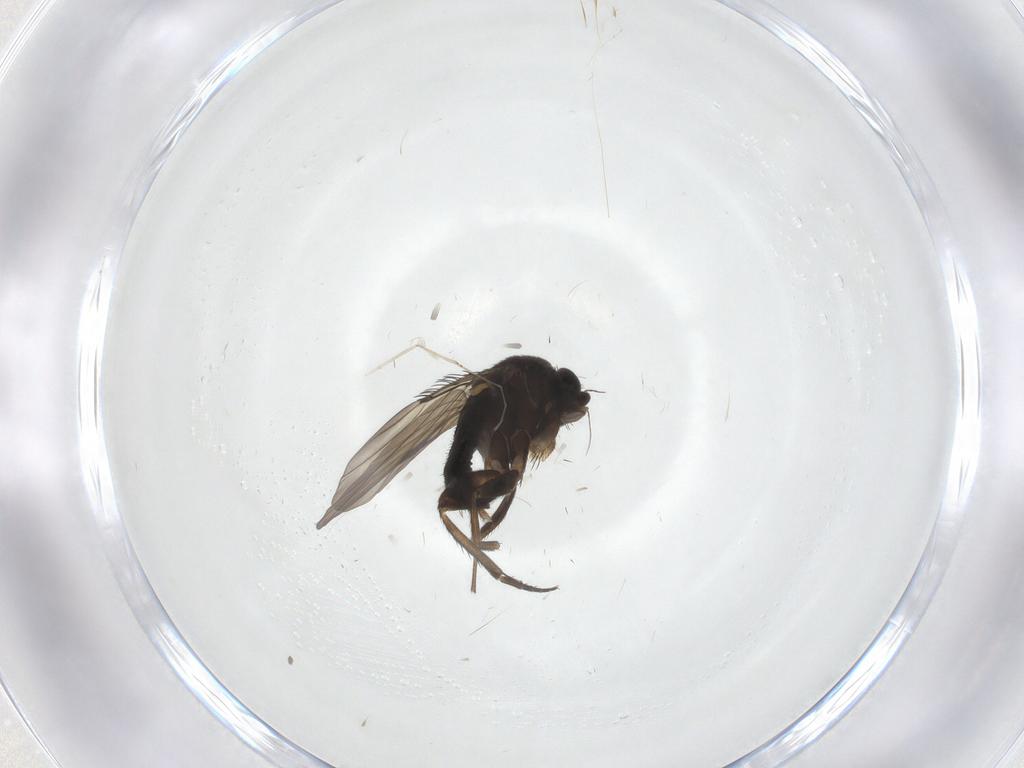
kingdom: Animalia
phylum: Arthropoda
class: Insecta
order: Diptera
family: Phoridae
